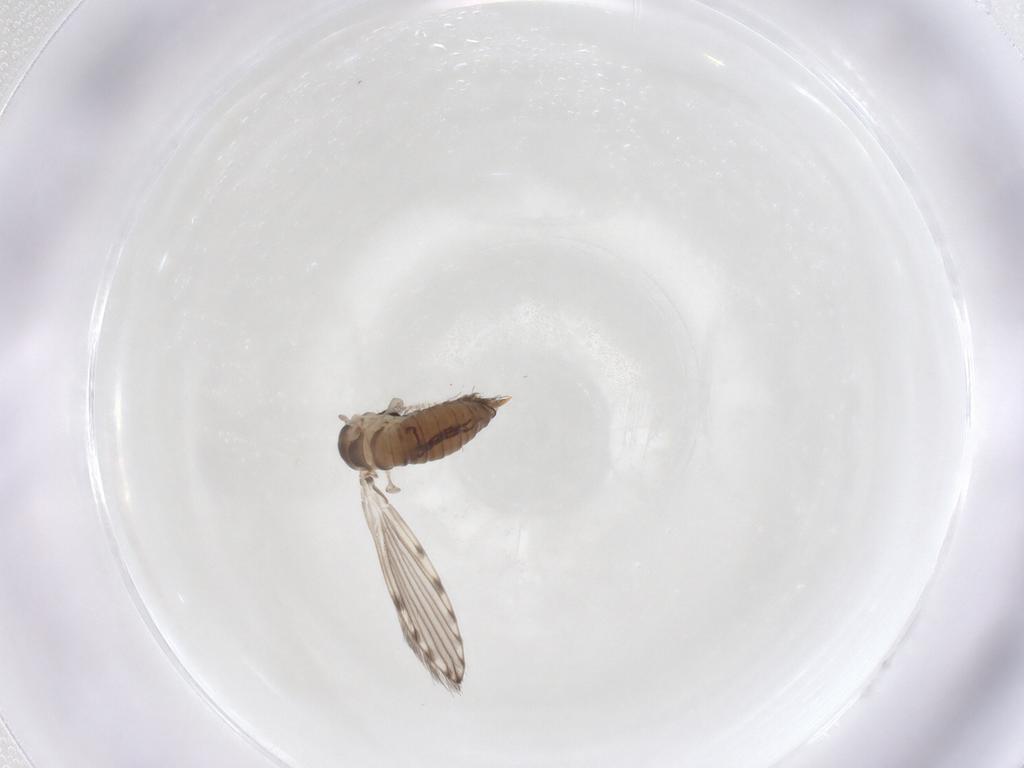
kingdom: Animalia
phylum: Arthropoda
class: Insecta
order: Diptera
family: Psychodidae
